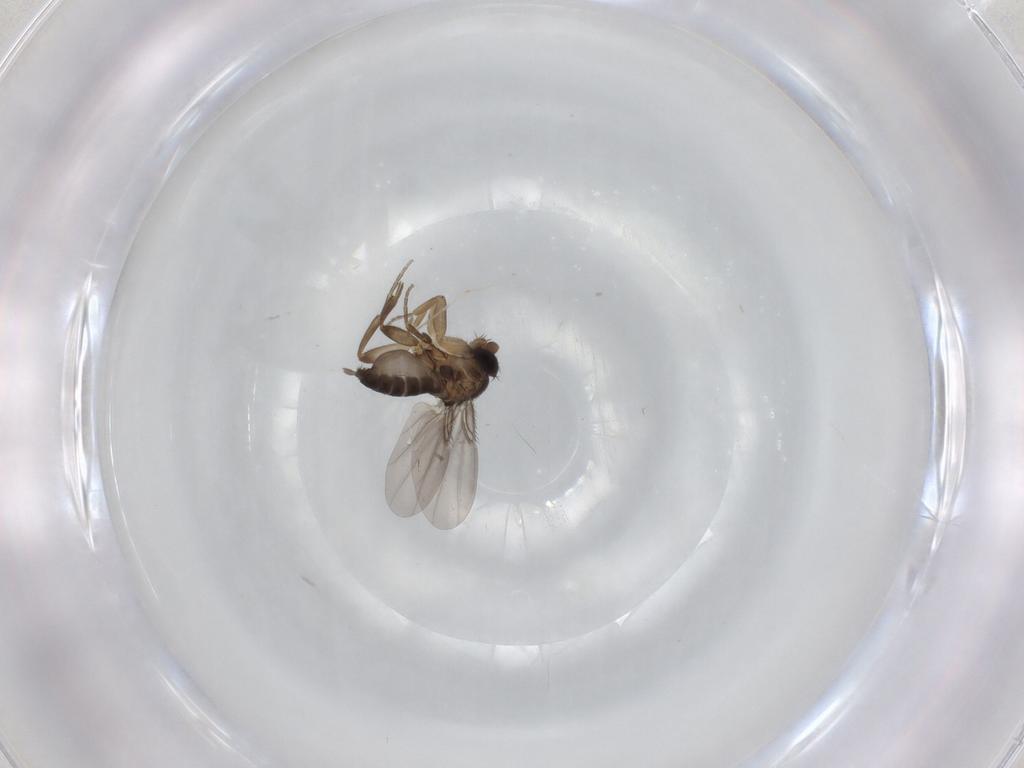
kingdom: Animalia
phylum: Arthropoda
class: Insecta
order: Diptera
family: Phoridae
